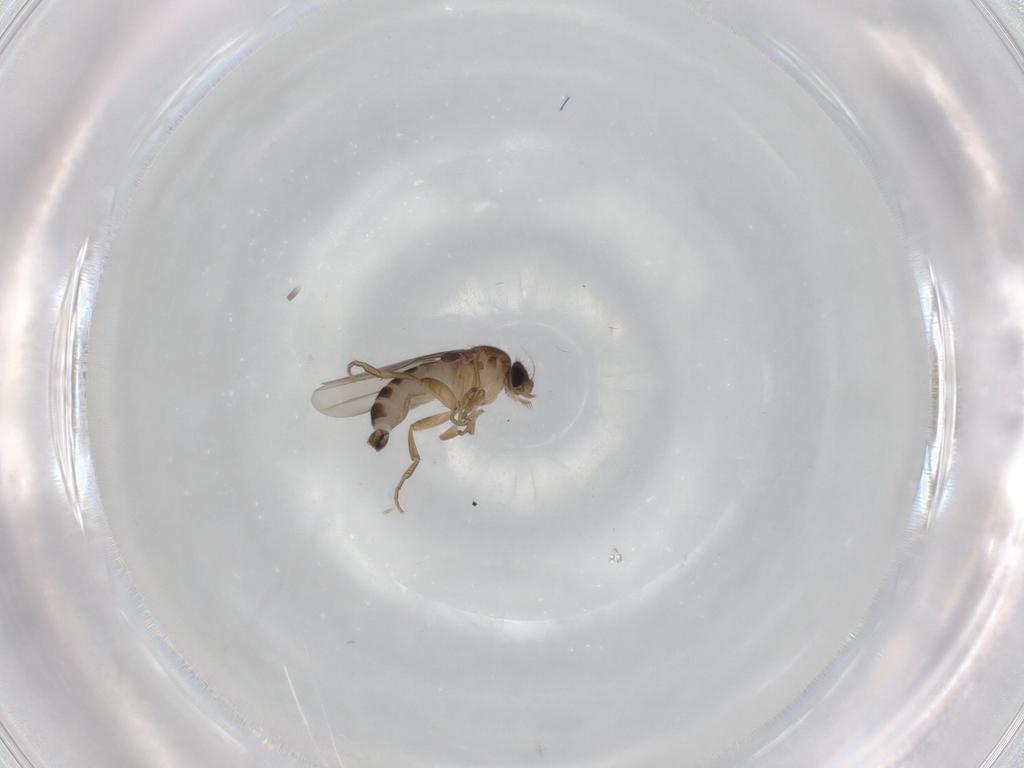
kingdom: Animalia
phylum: Arthropoda
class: Insecta
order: Diptera
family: Phoridae
